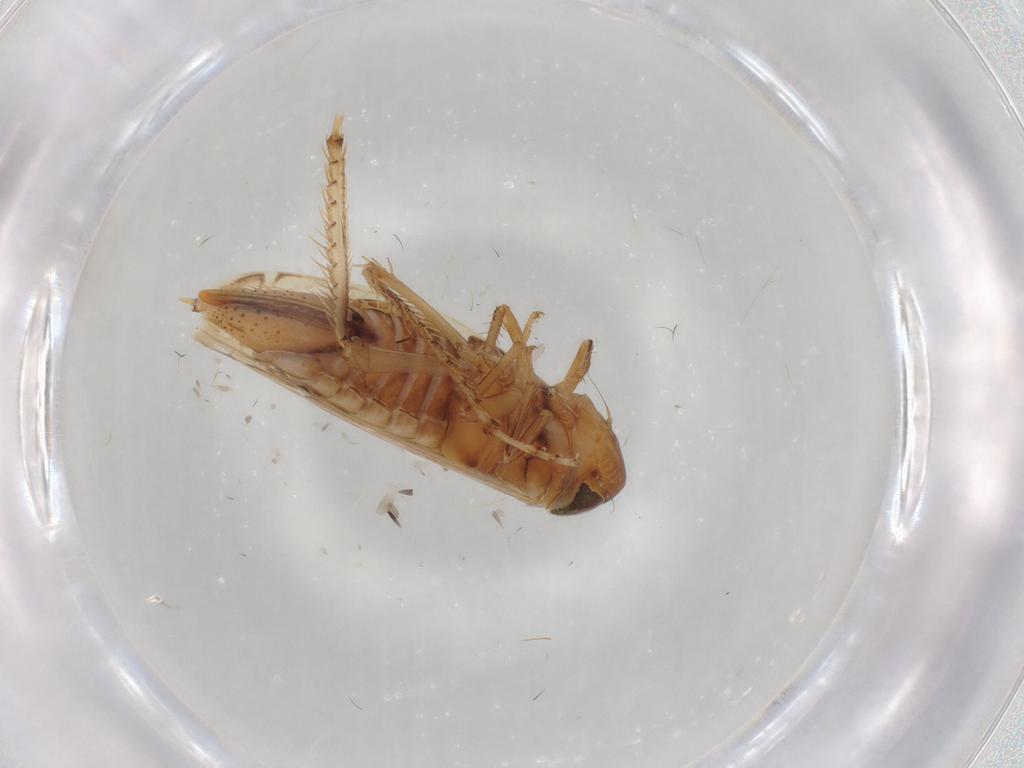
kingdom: Animalia
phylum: Arthropoda
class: Insecta
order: Hemiptera
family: Cicadellidae
